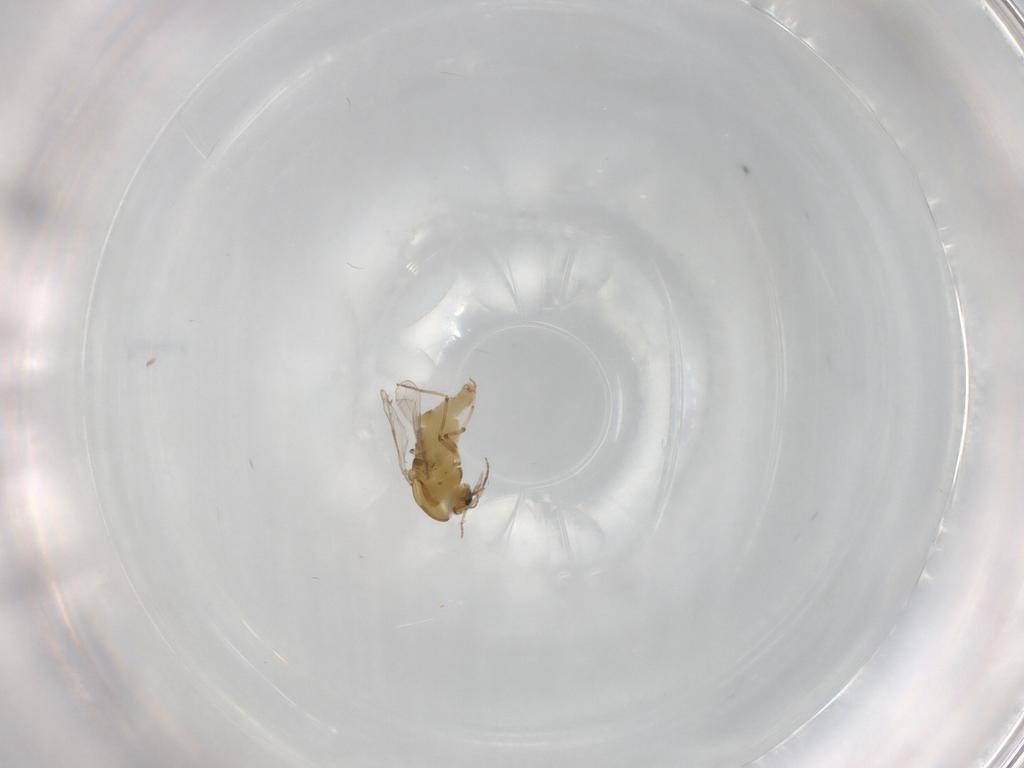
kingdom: Animalia
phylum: Arthropoda
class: Insecta
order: Diptera
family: Chironomidae
